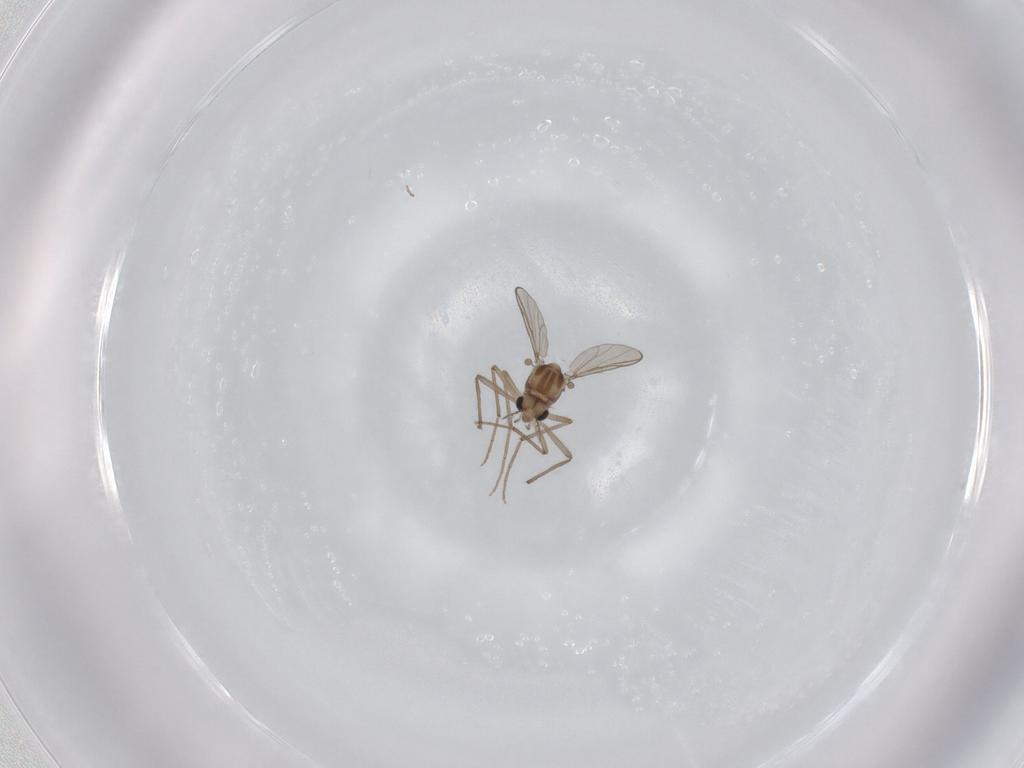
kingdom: Animalia
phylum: Arthropoda
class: Insecta
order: Diptera
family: Chironomidae
